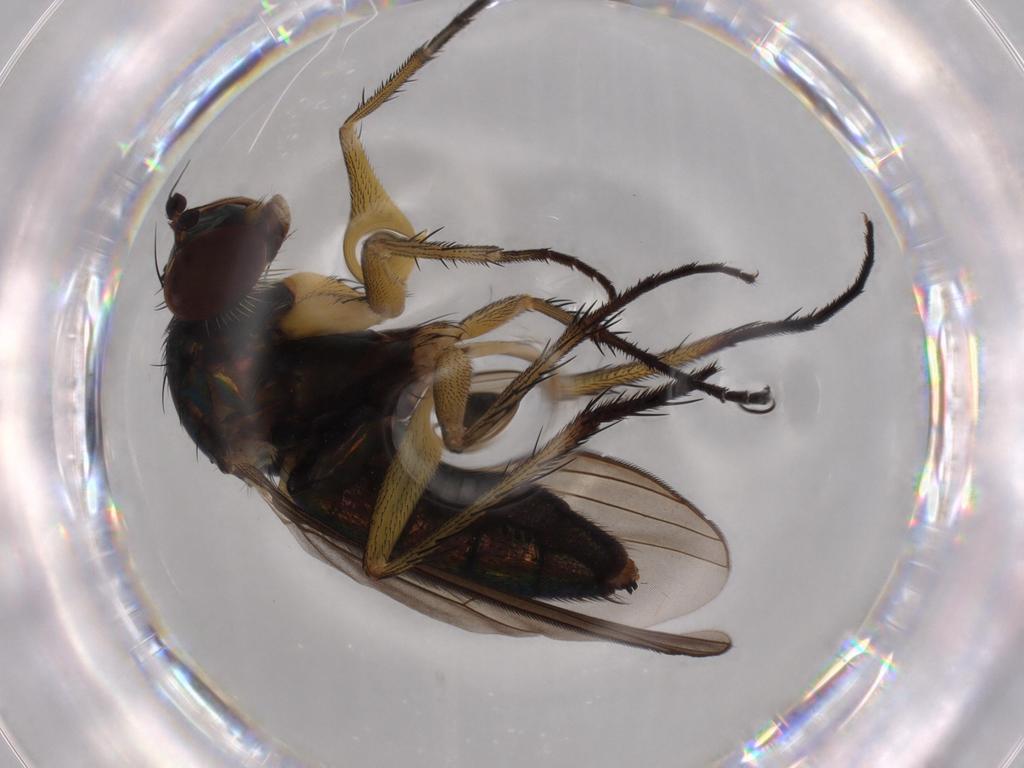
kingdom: Animalia
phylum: Arthropoda
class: Insecta
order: Diptera
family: Dolichopodidae
